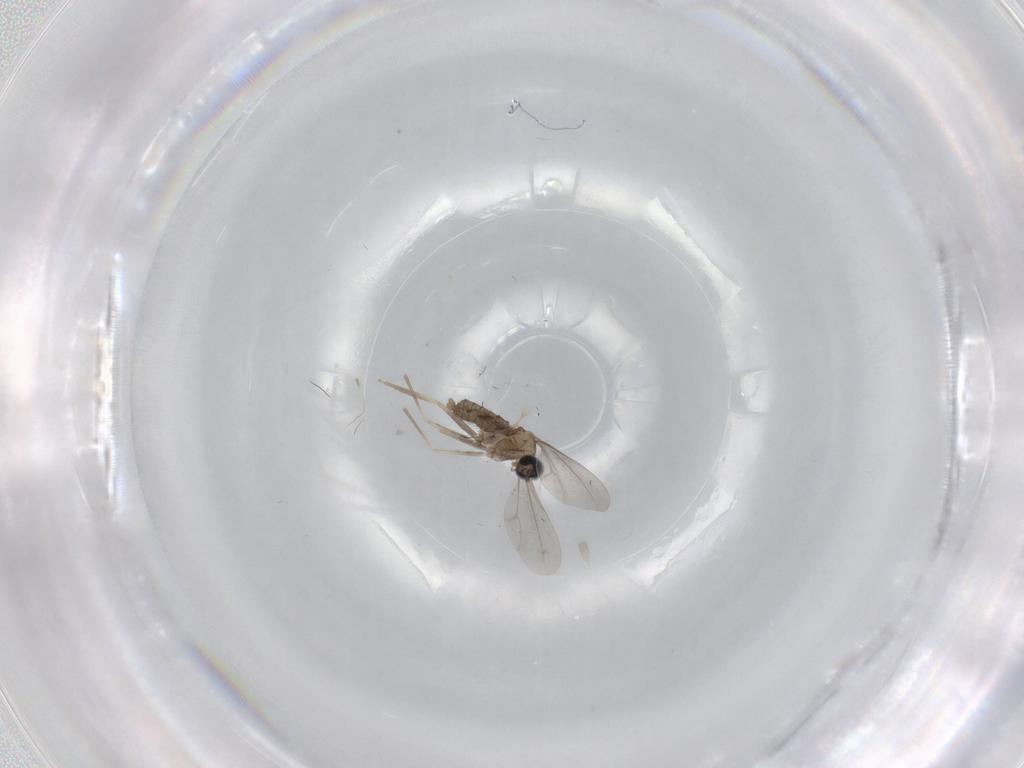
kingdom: Animalia
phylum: Arthropoda
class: Insecta
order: Diptera
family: Cecidomyiidae
